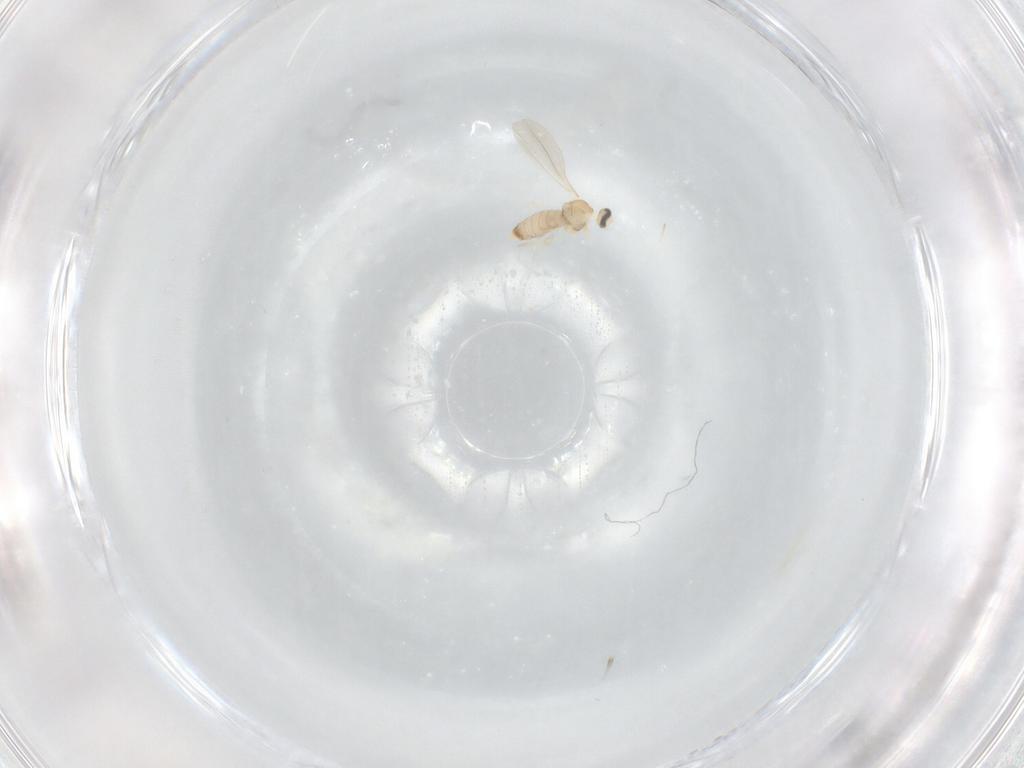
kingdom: Animalia
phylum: Arthropoda
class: Insecta
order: Diptera
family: Cecidomyiidae
